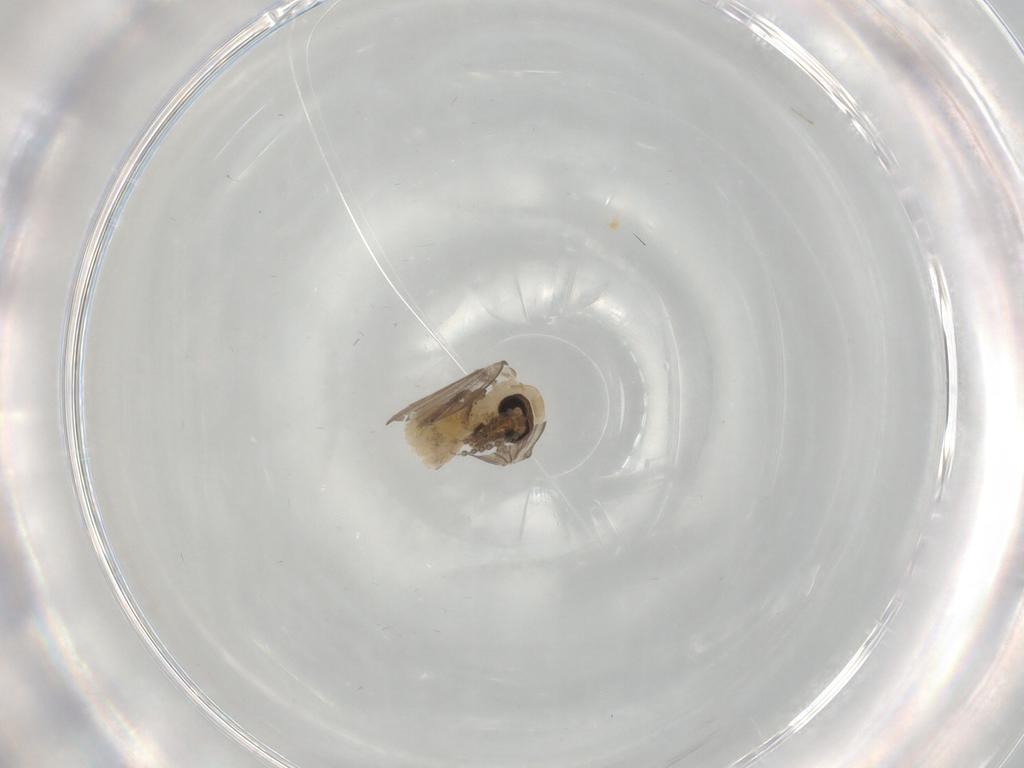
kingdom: Animalia
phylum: Arthropoda
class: Insecta
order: Diptera
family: Psychodidae
